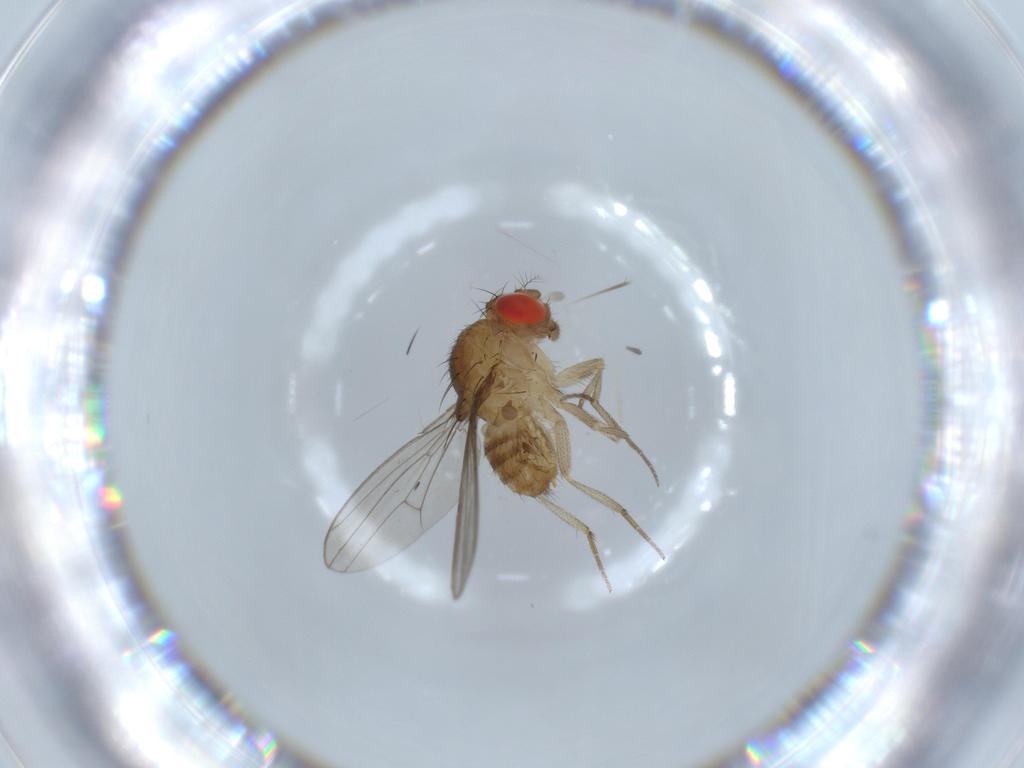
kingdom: Animalia
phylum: Arthropoda
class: Insecta
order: Diptera
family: Drosophilidae
